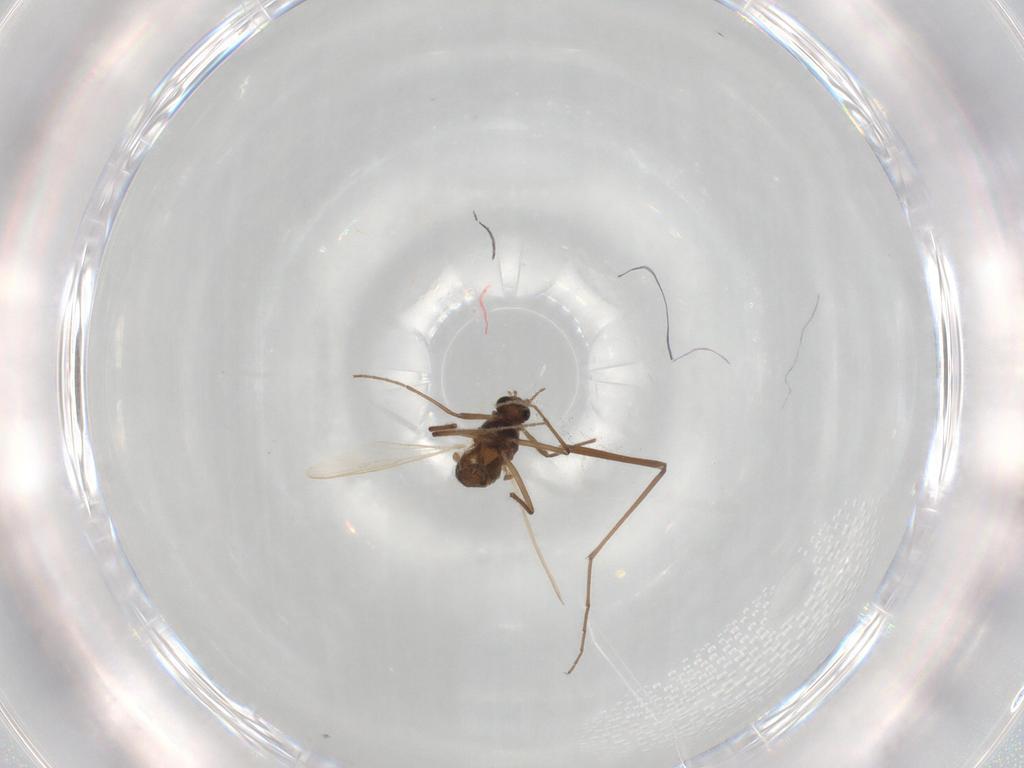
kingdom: Animalia
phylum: Arthropoda
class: Insecta
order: Diptera
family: Chironomidae
